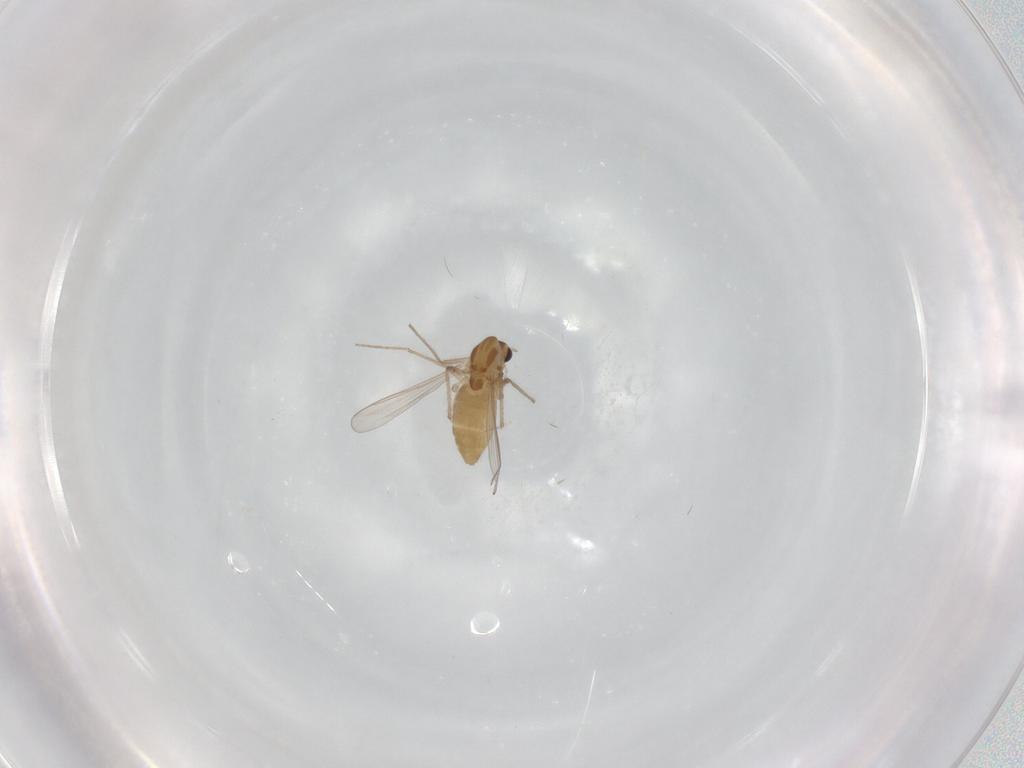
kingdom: Animalia
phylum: Arthropoda
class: Insecta
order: Diptera
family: Chironomidae
